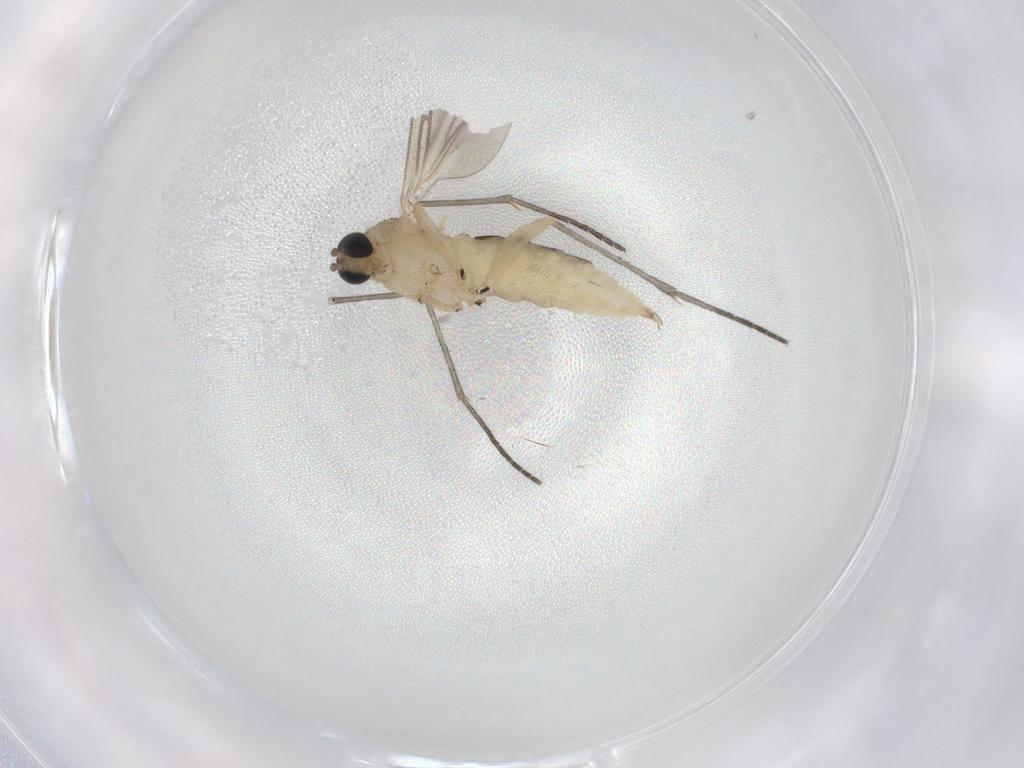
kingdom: Animalia
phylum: Arthropoda
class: Insecta
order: Diptera
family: Sciaridae
